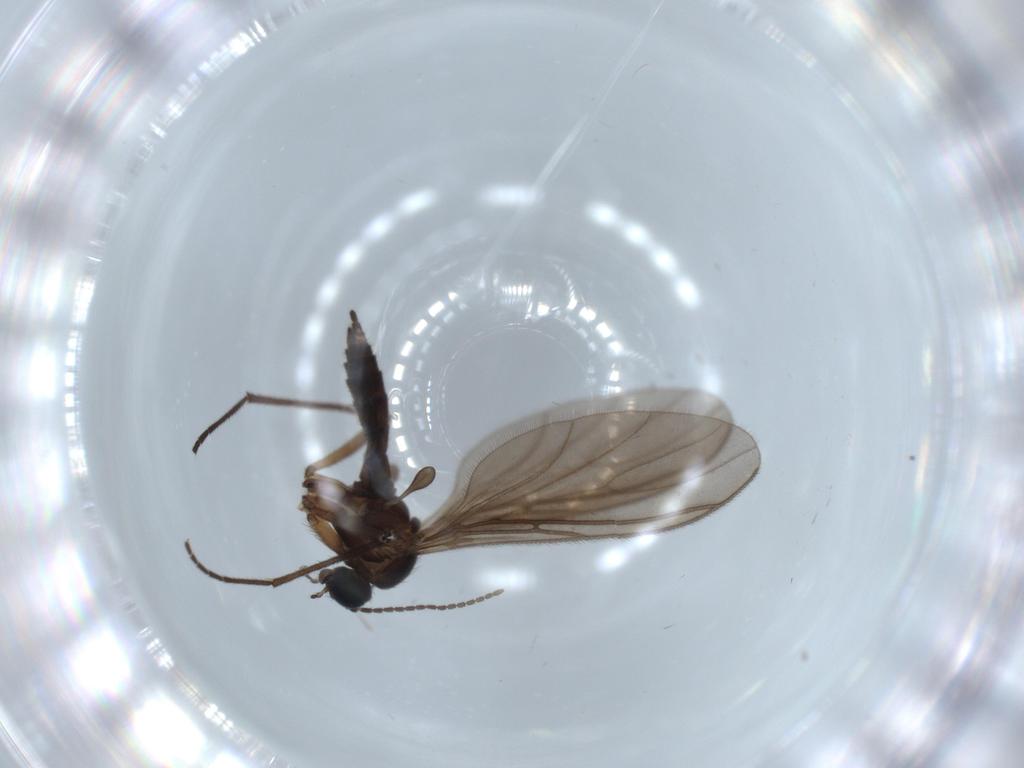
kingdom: Animalia
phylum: Arthropoda
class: Insecta
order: Diptera
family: Sciaridae
